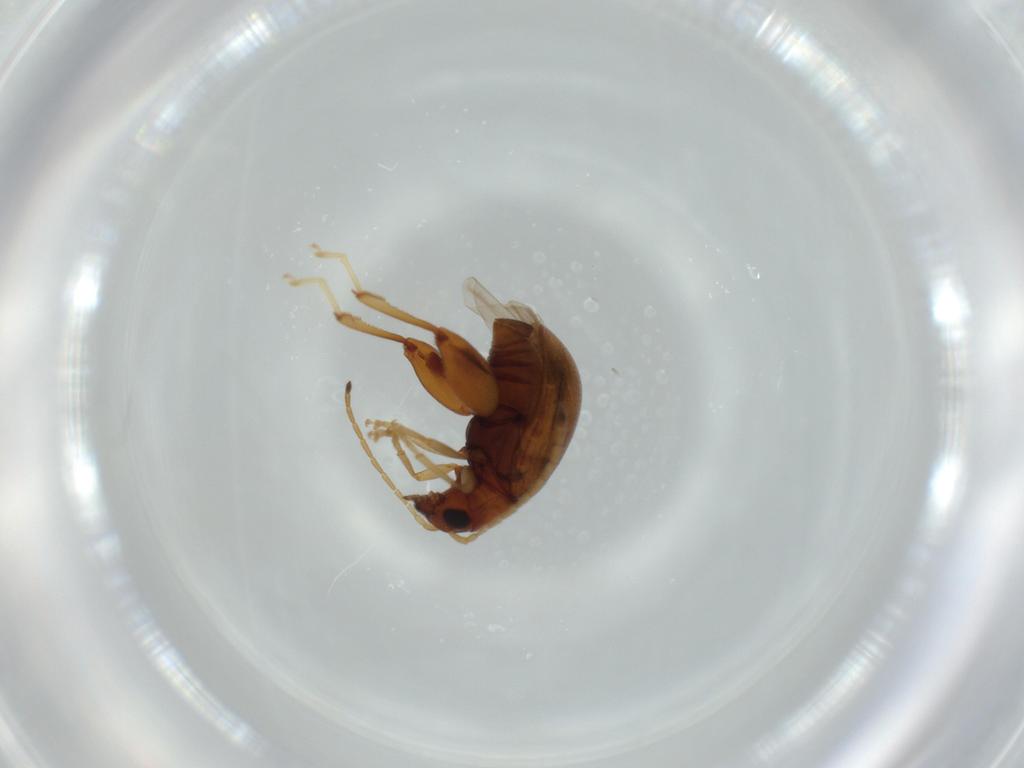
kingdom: Animalia
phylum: Arthropoda
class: Insecta
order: Coleoptera
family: Chrysomelidae
